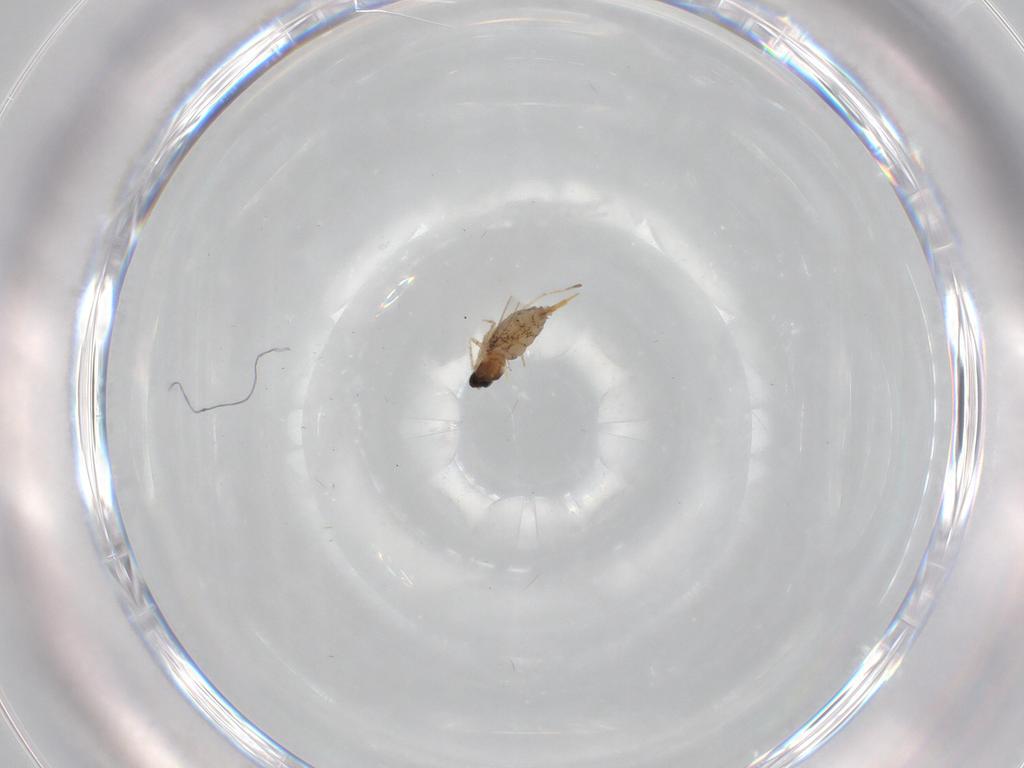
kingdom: Animalia
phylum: Arthropoda
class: Insecta
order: Diptera
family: Cecidomyiidae
